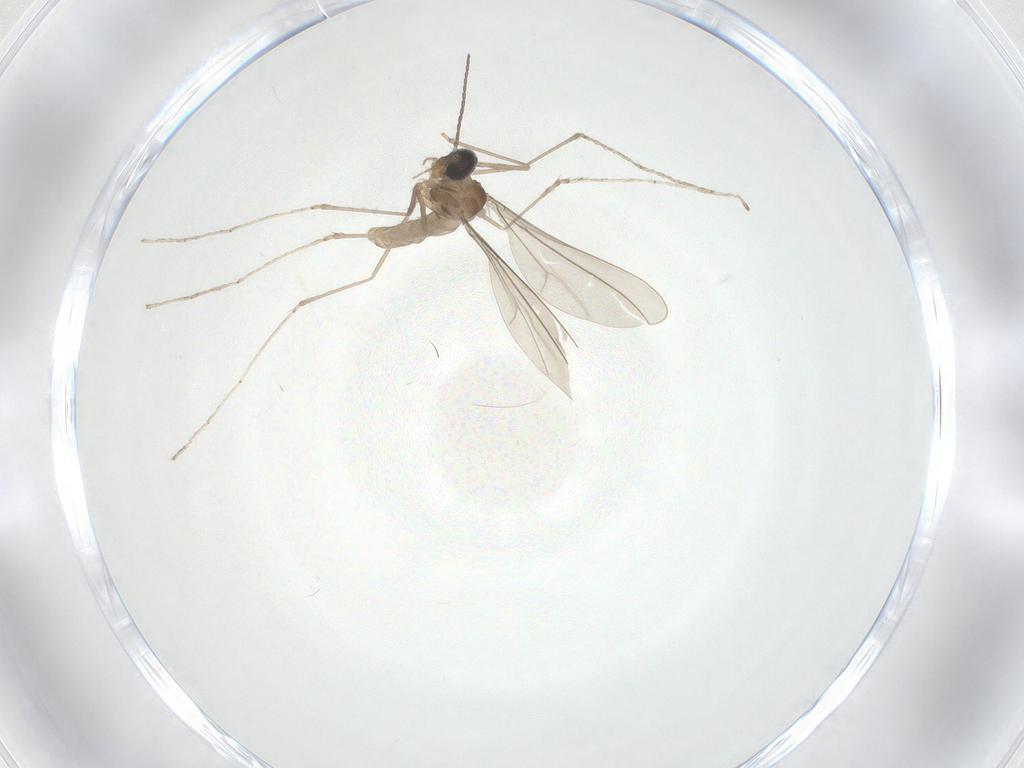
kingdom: Animalia
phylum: Arthropoda
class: Insecta
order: Diptera
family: Cecidomyiidae
